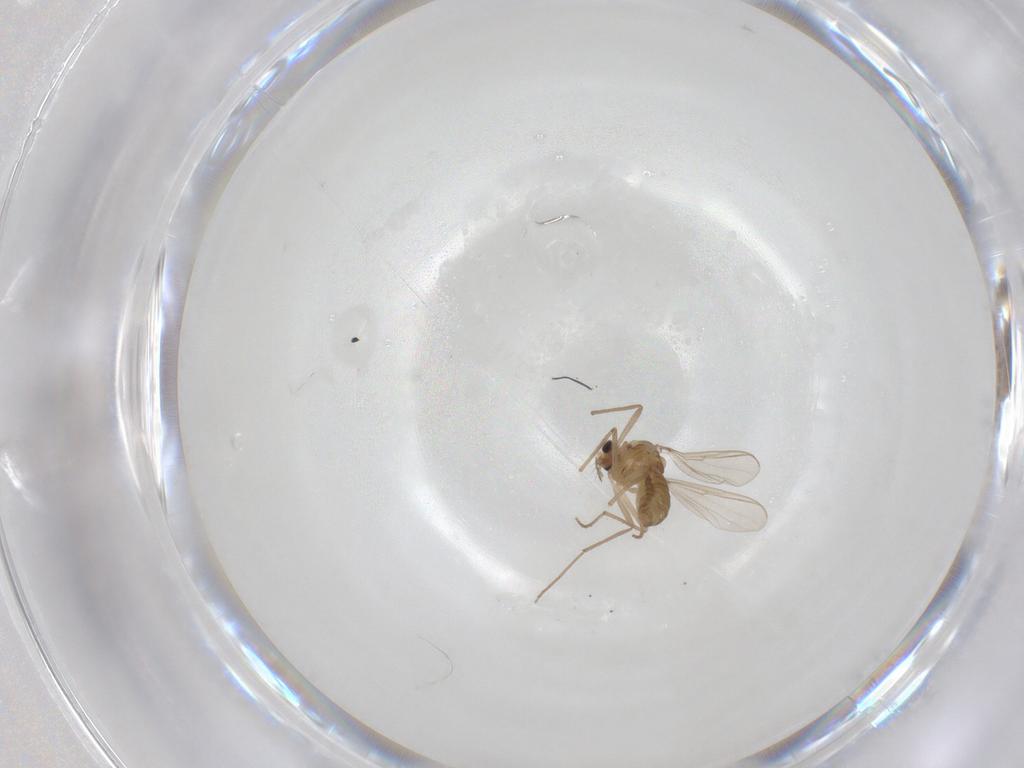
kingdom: Animalia
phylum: Arthropoda
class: Insecta
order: Diptera
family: Chironomidae
